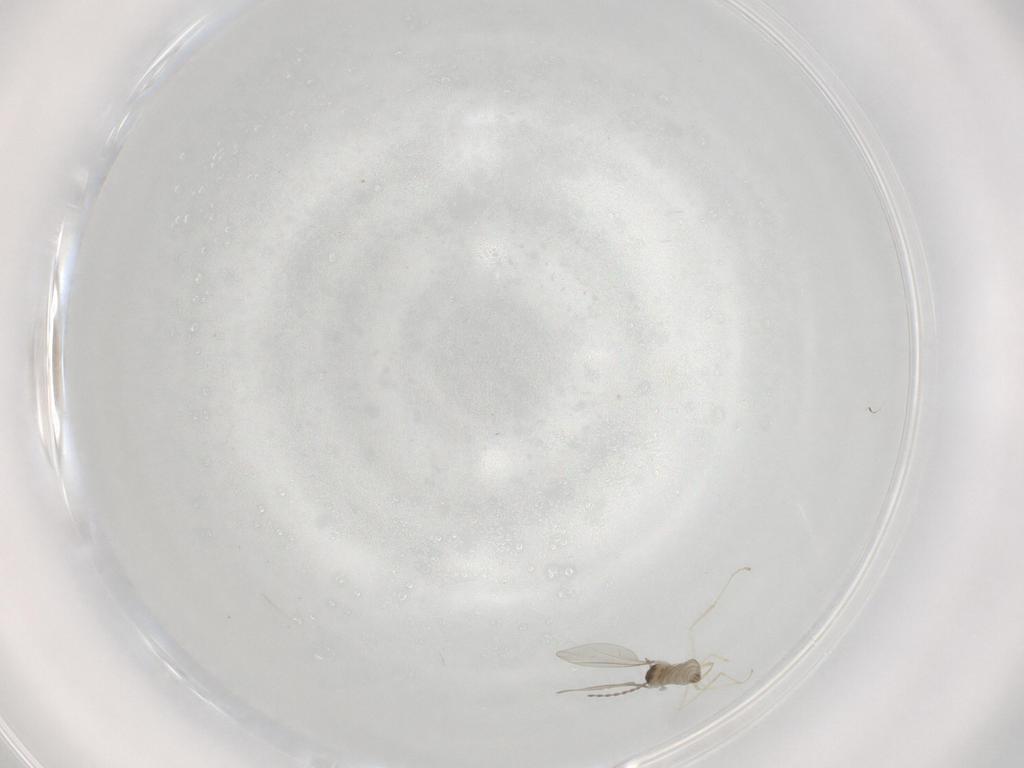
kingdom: Animalia
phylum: Arthropoda
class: Insecta
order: Diptera
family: Cecidomyiidae
